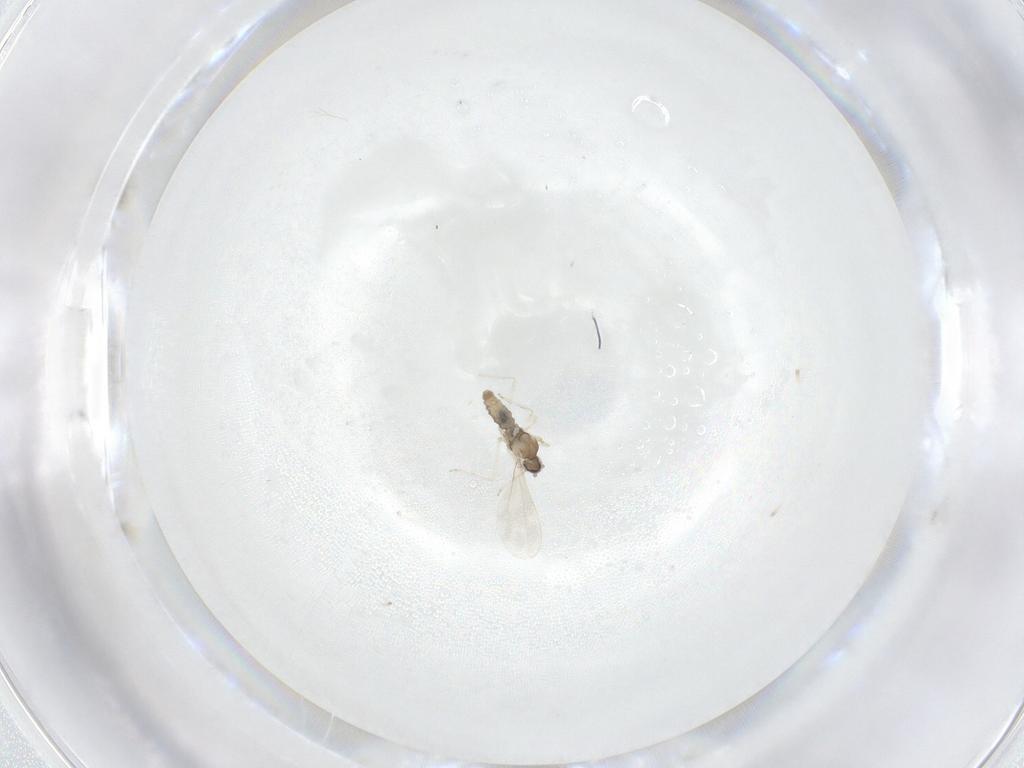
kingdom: Animalia
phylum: Arthropoda
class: Insecta
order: Diptera
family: Cecidomyiidae
